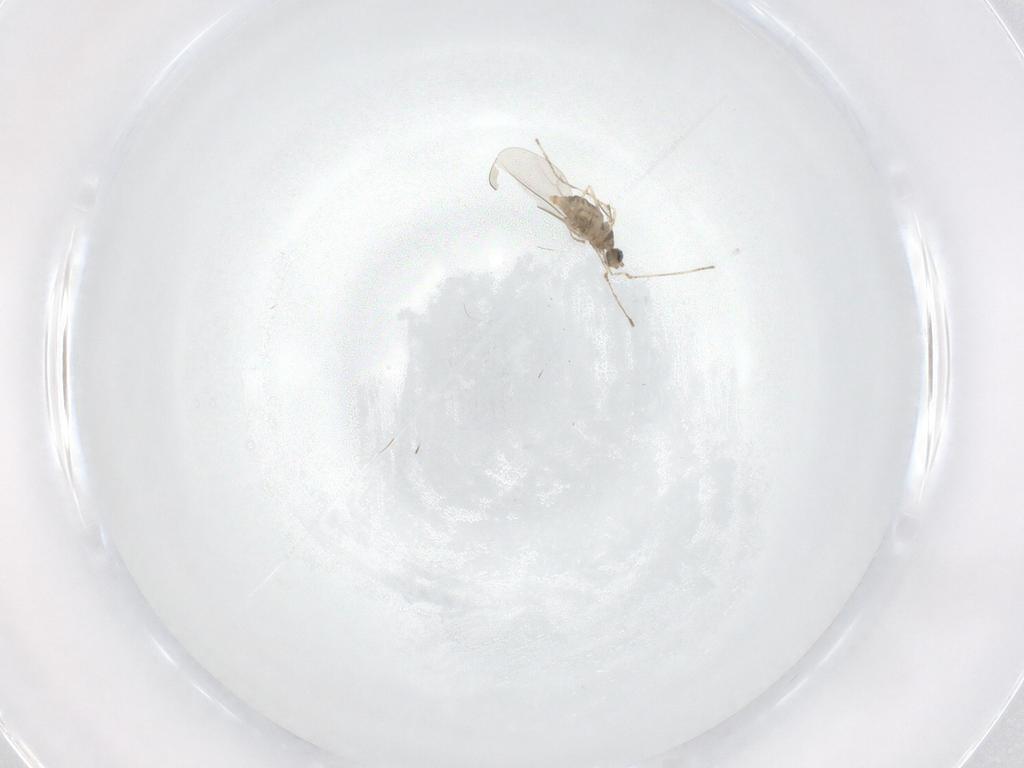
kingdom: Animalia
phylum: Arthropoda
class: Insecta
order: Diptera
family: Cecidomyiidae
